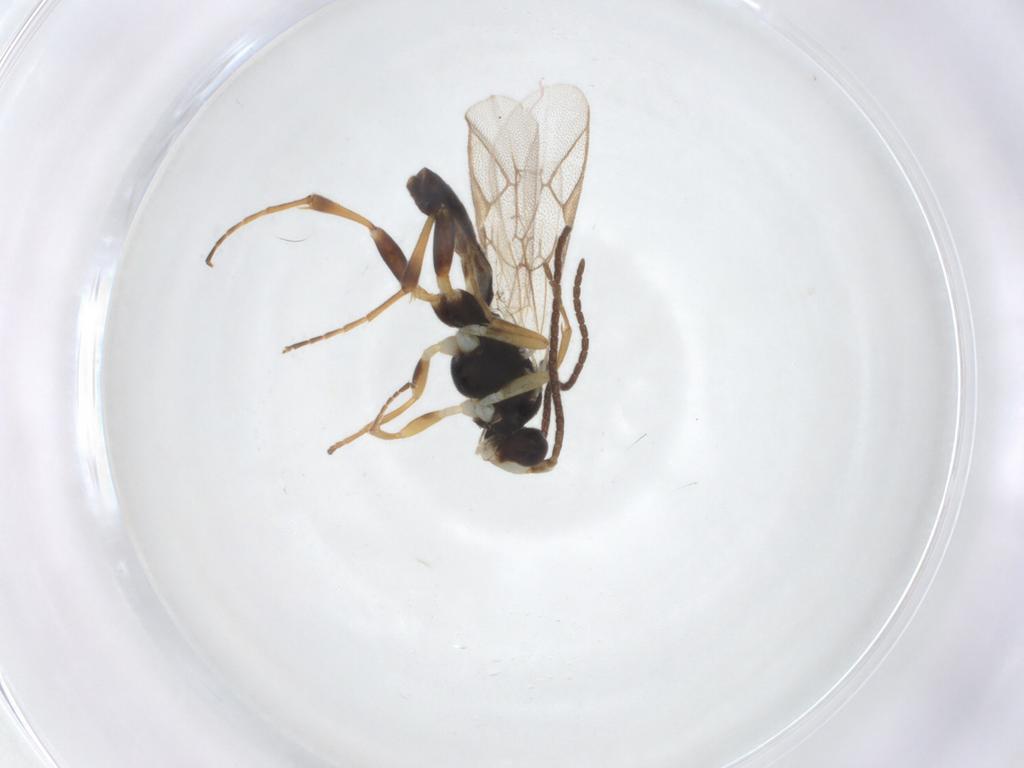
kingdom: Animalia
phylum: Arthropoda
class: Insecta
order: Hymenoptera
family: Ichneumonidae
